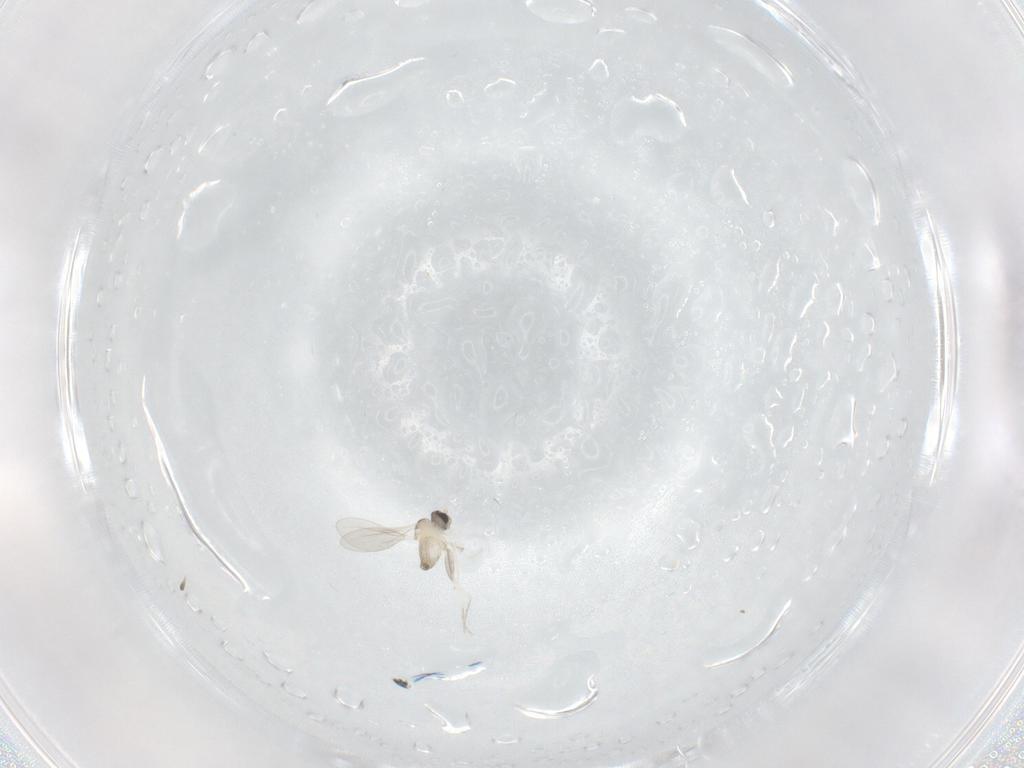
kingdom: Animalia
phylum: Arthropoda
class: Insecta
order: Diptera
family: Cecidomyiidae
